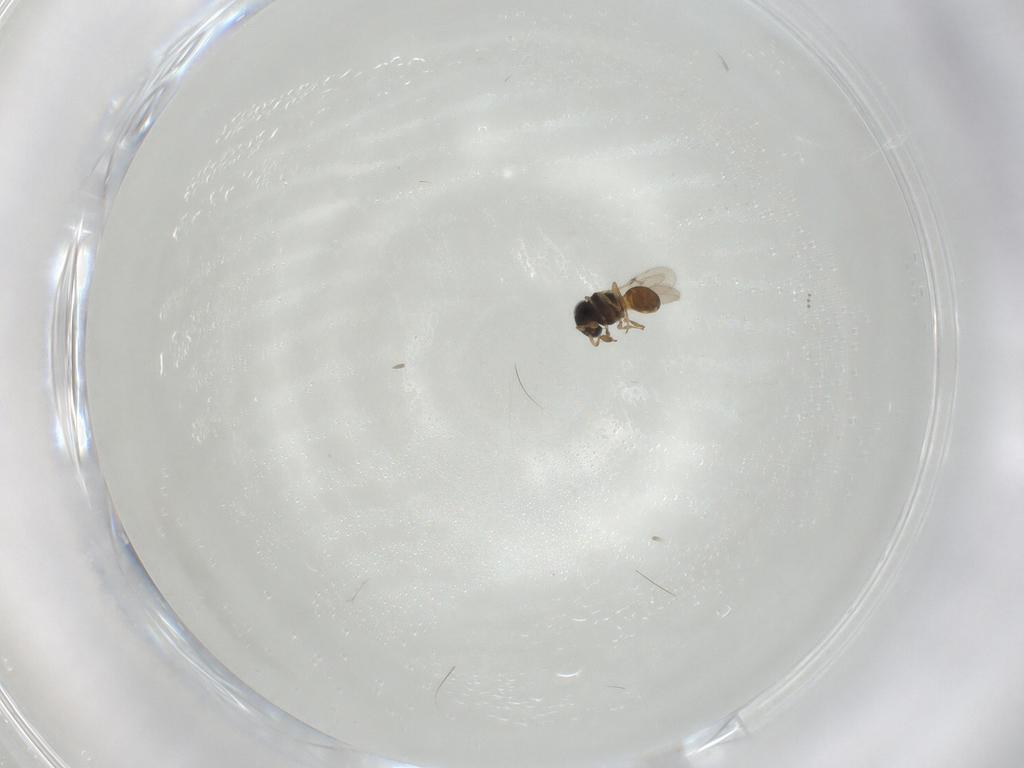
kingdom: Animalia
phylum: Arthropoda
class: Insecta
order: Hymenoptera
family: Scelionidae
